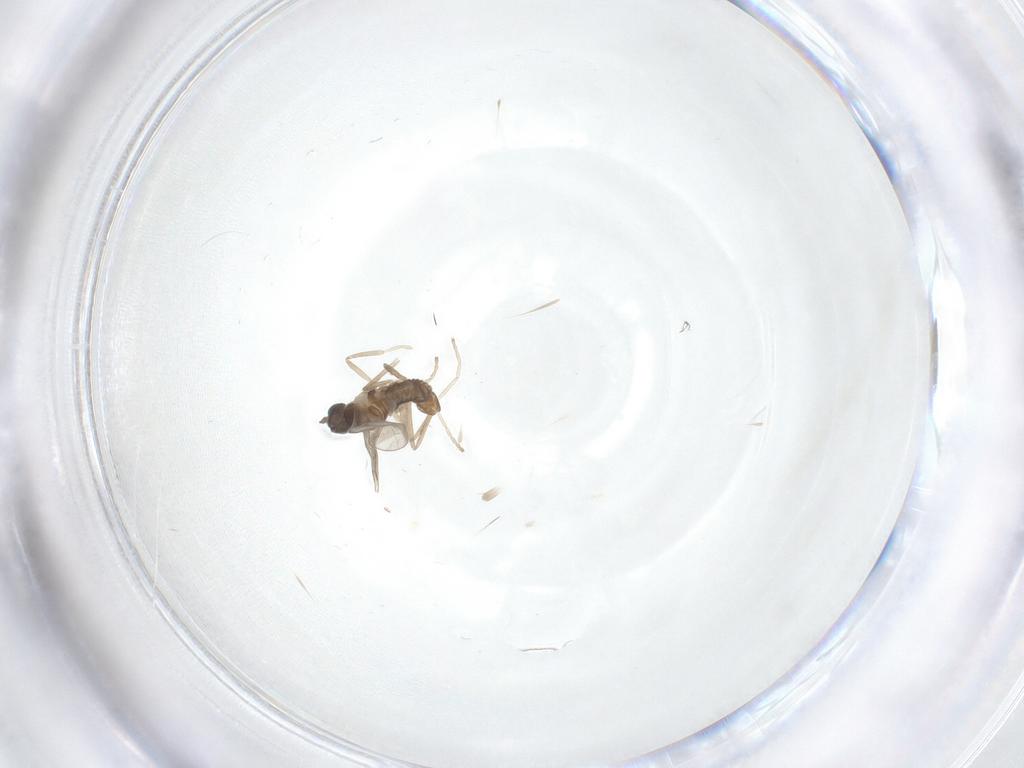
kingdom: Animalia
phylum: Arthropoda
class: Insecta
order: Diptera
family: Cecidomyiidae
